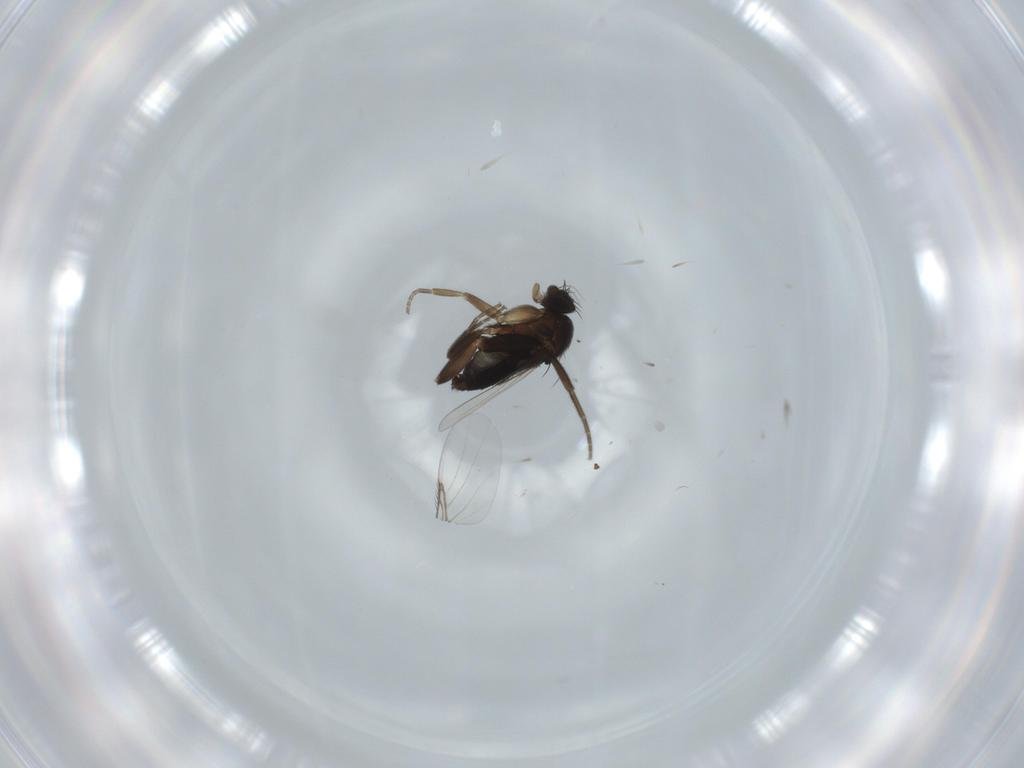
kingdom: Animalia
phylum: Arthropoda
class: Insecta
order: Diptera
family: Phoridae
